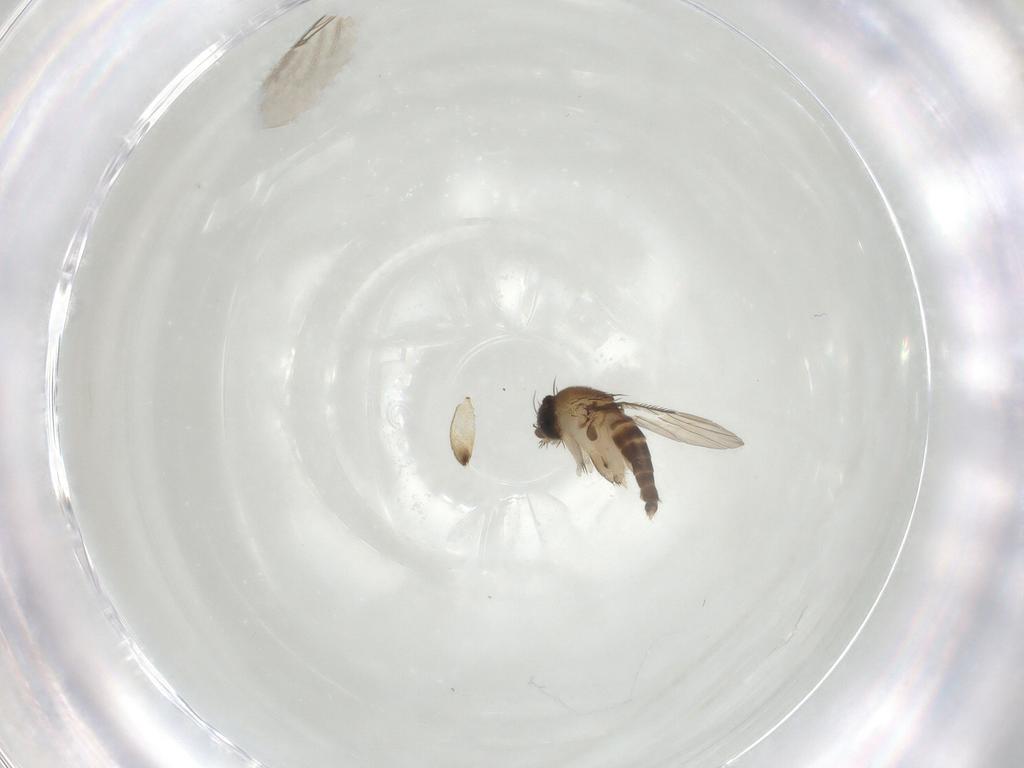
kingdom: Animalia
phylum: Arthropoda
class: Insecta
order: Diptera
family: Phoridae
